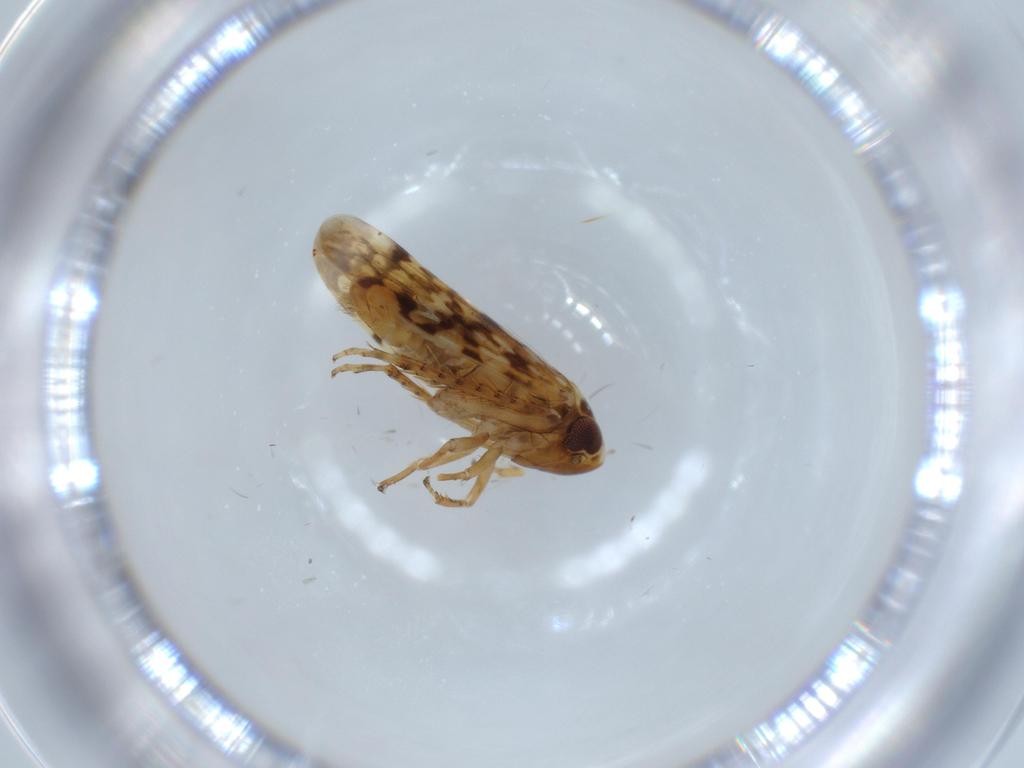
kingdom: Animalia
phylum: Arthropoda
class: Insecta
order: Hemiptera
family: Cicadellidae
